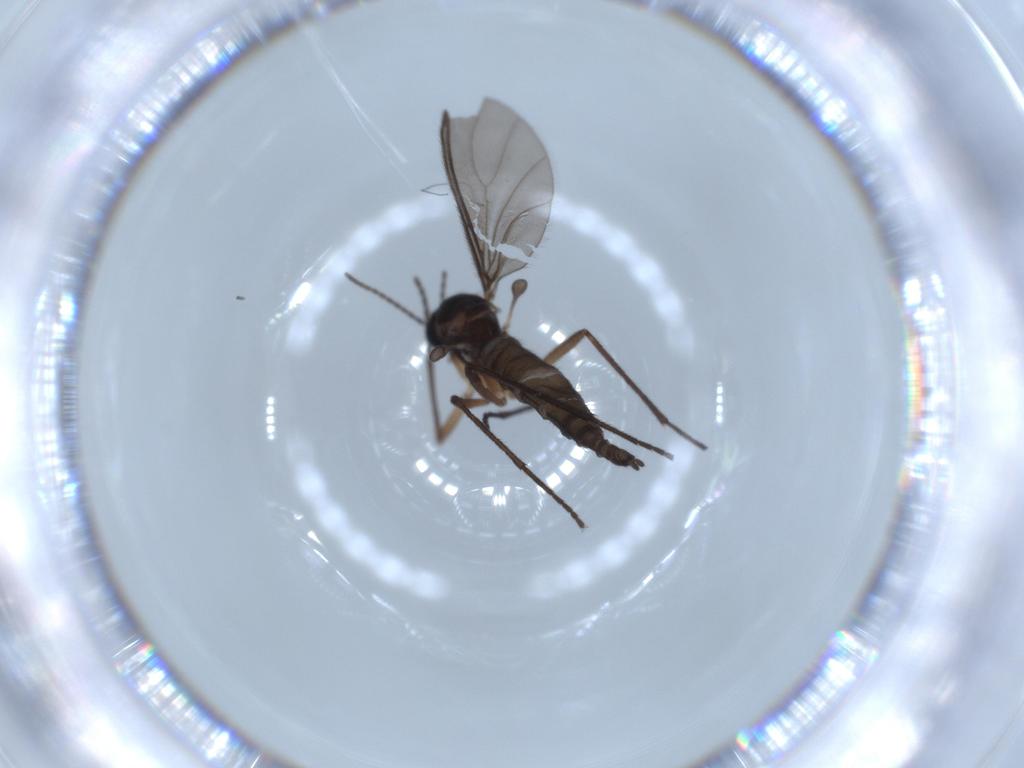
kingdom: Animalia
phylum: Arthropoda
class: Insecta
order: Diptera
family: Sciaridae
